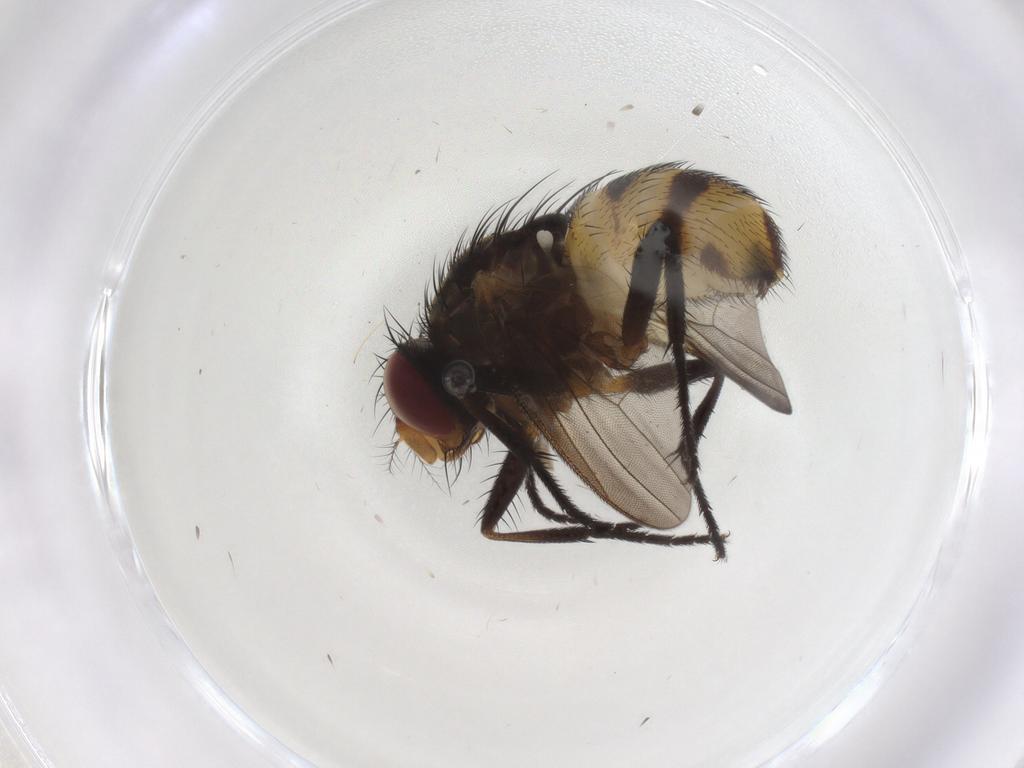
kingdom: Animalia
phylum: Arthropoda
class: Insecta
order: Diptera
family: Anthomyiidae
